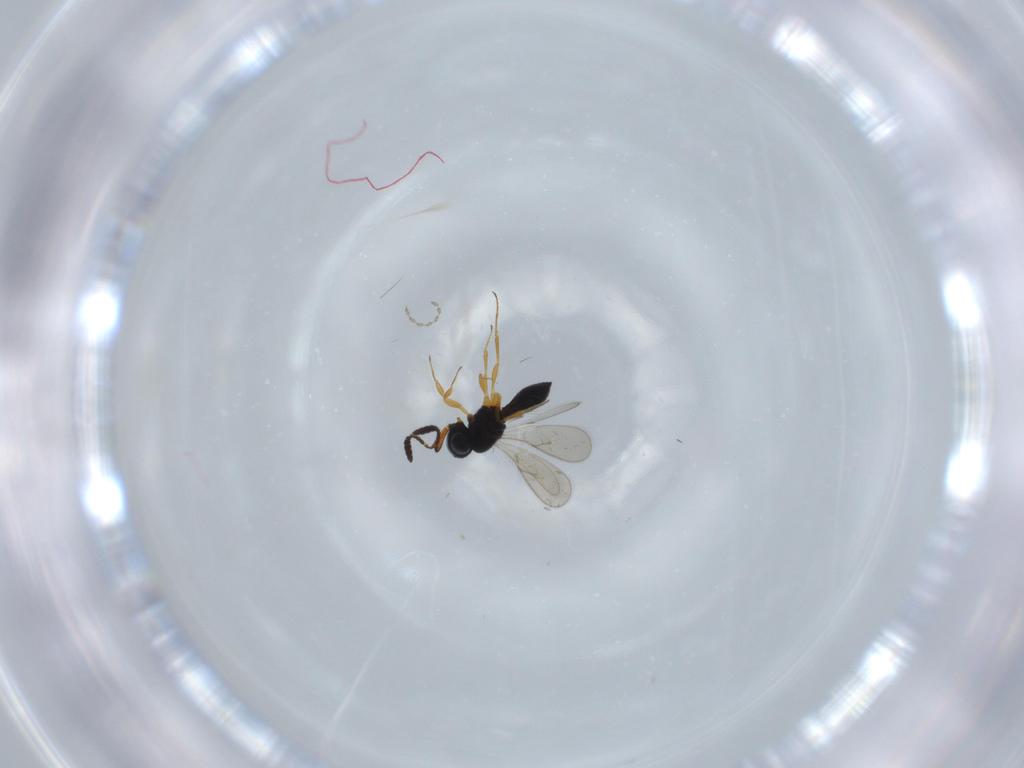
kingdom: Animalia
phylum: Arthropoda
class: Insecta
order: Hymenoptera
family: Scelionidae
